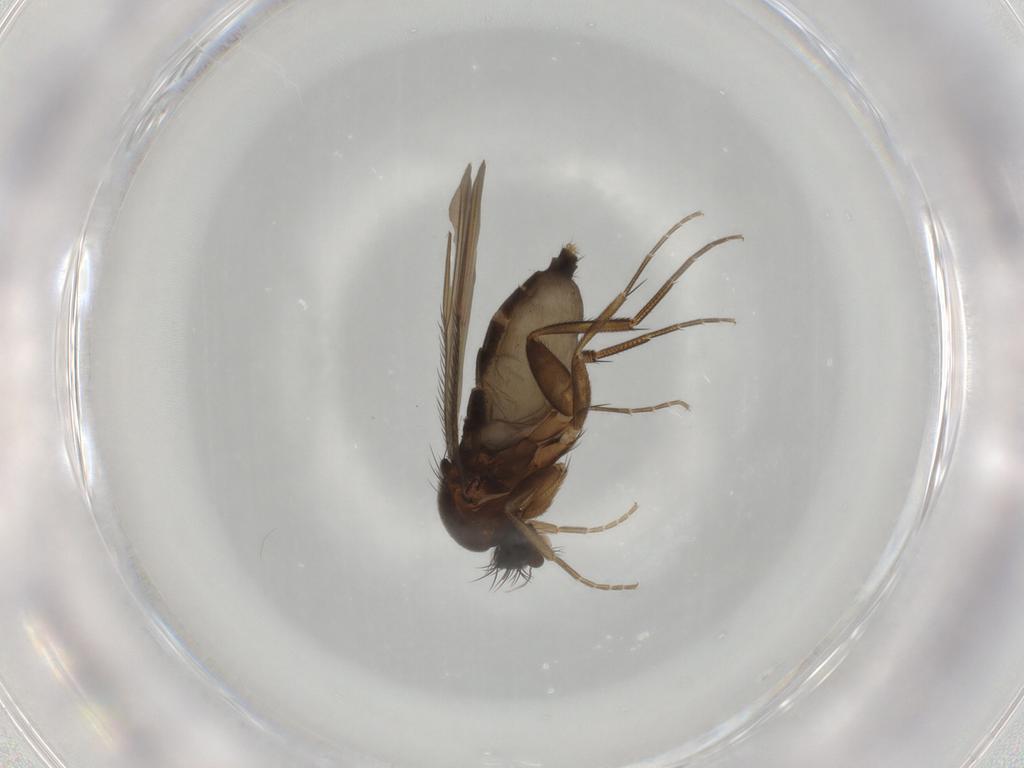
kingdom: Animalia
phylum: Arthropoda
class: Insecta
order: Diptera
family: Phoridae
